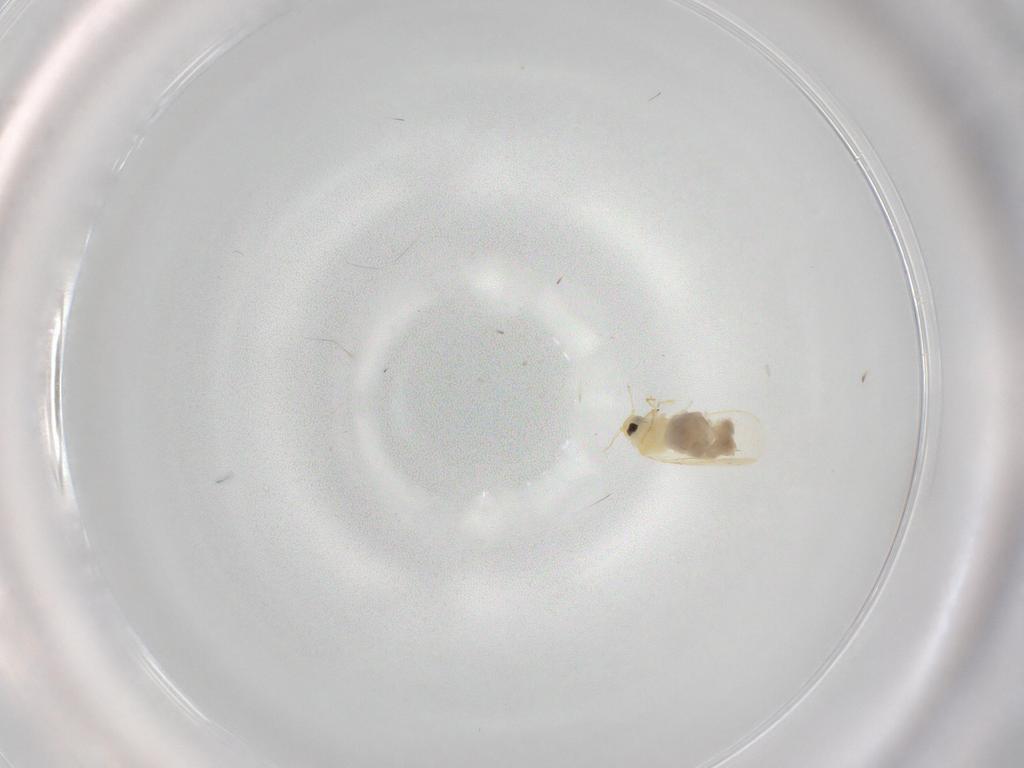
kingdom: Animalia
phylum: Arthropoda
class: Insecta
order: Hemiptera
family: Aleyrodidae
